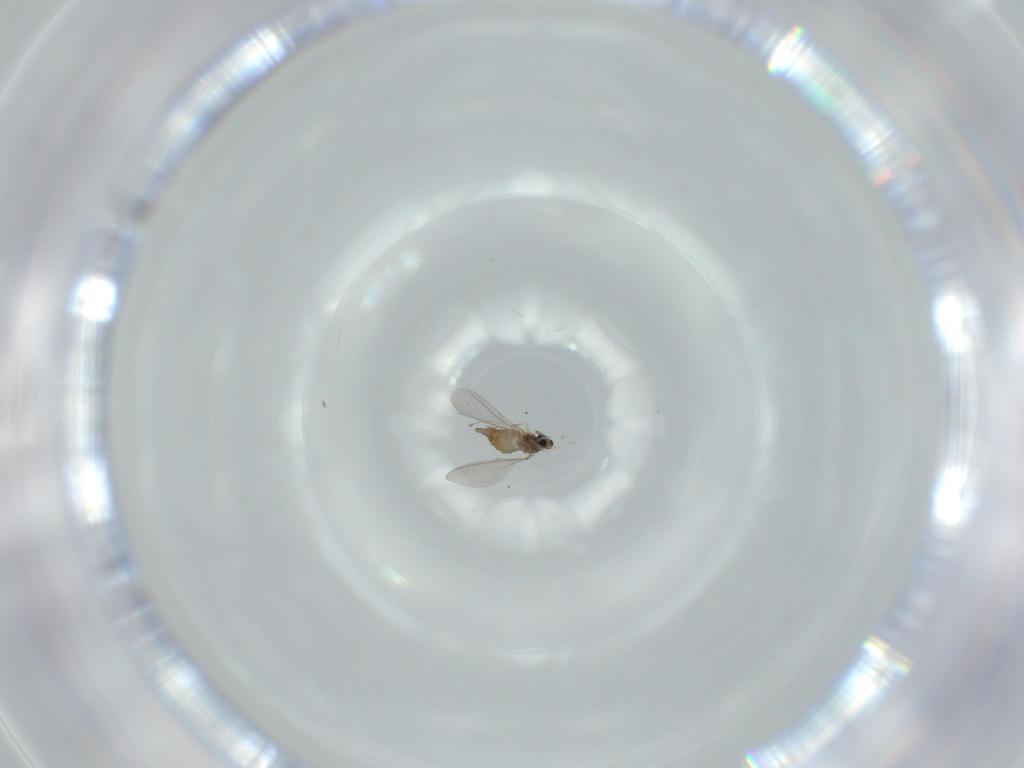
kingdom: Animalia
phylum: Arthropoda
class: Insecta
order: Diptera
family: Cecidomyiidae
